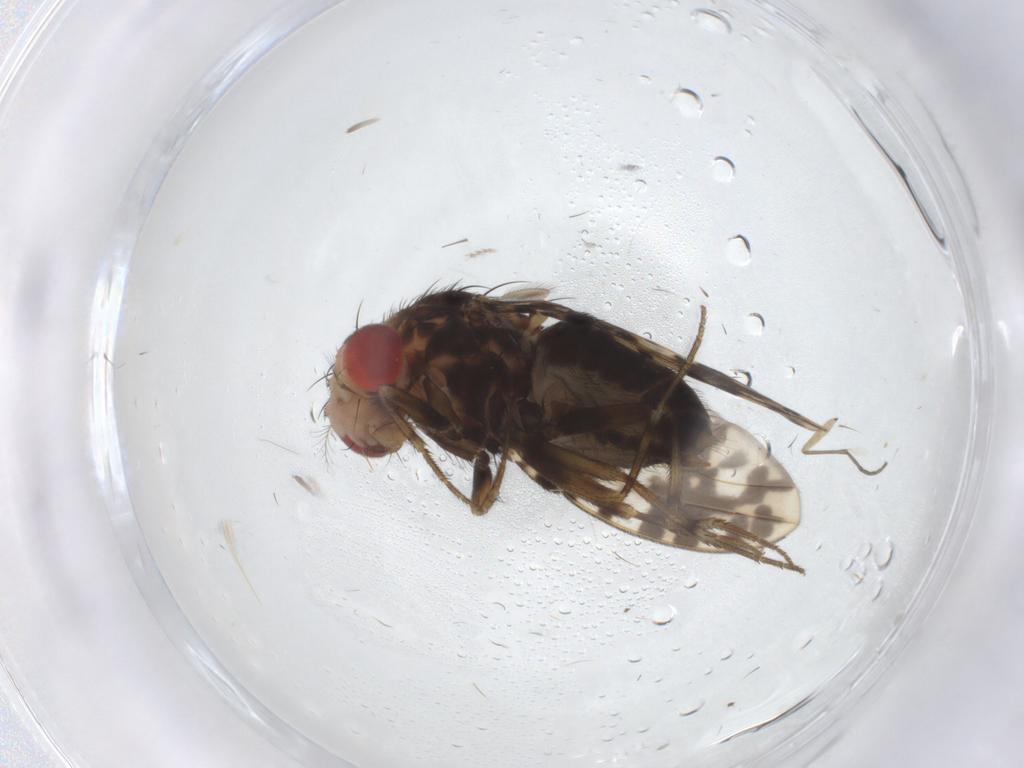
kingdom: Animalia
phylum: Arthropoda
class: Insecta
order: Diptera
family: Drosophilidae
